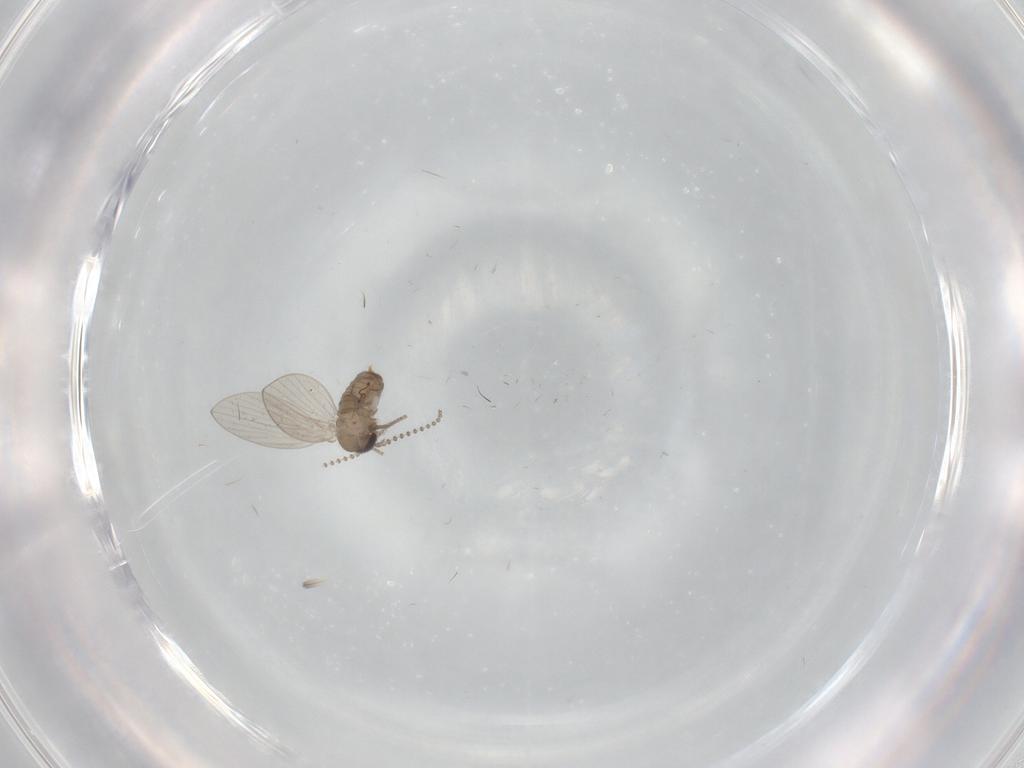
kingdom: Animalia
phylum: Arthropoda
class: Insecta
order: Diptera
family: Psychodidae
